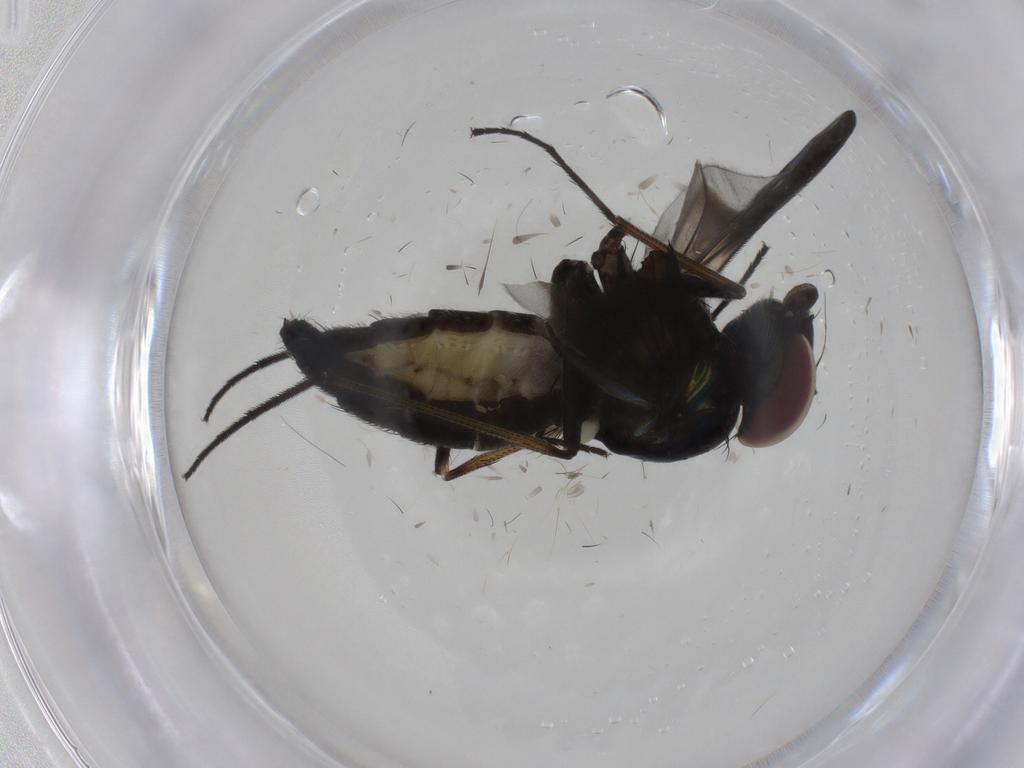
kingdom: Animalia
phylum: Arthropoda
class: Insecta
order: Diptera
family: Dolichopodidae
